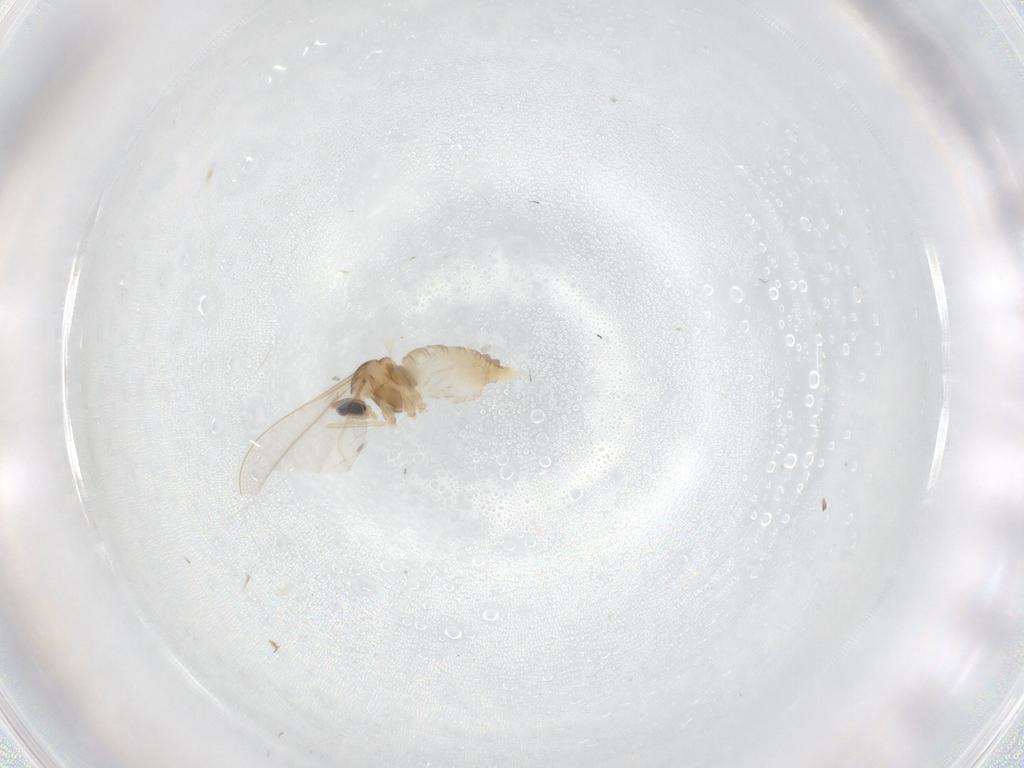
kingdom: Animalia
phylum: Arthropoda
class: Insecta
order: Diptera
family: Cecidomyiidae
